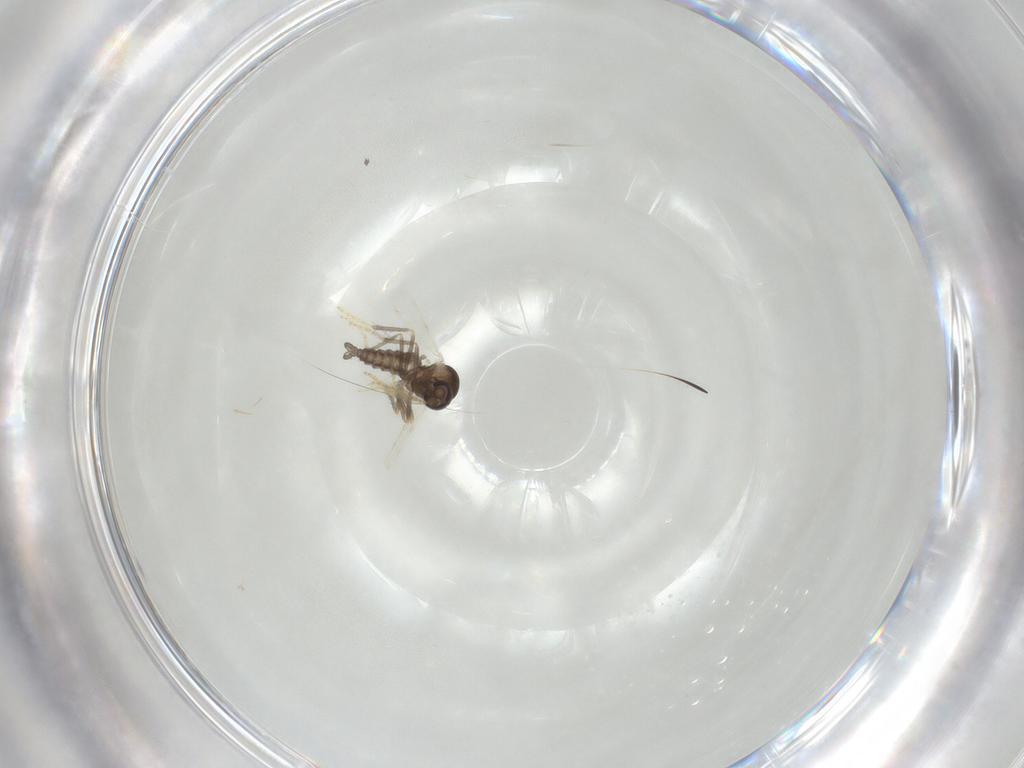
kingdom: Animalia
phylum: Arthropoda
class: Insecta
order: Diptera
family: Ceratopogonidae
